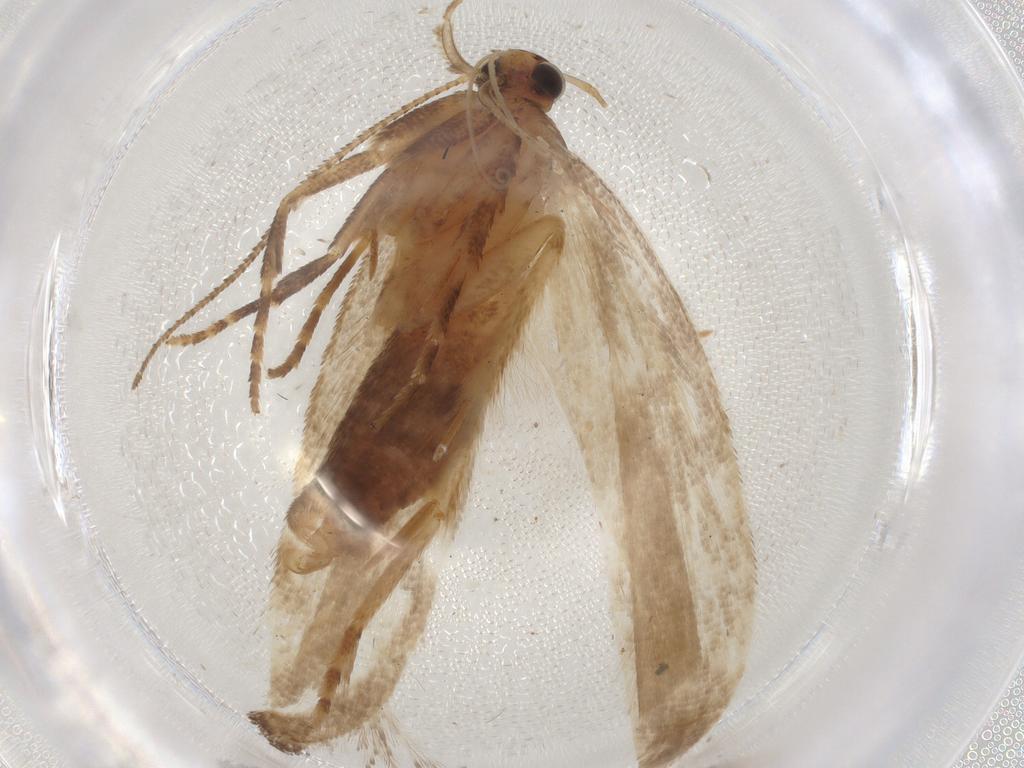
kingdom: Animalia
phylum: Arthropoda
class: Insecta
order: Lepidoptera
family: Gelechiidae
